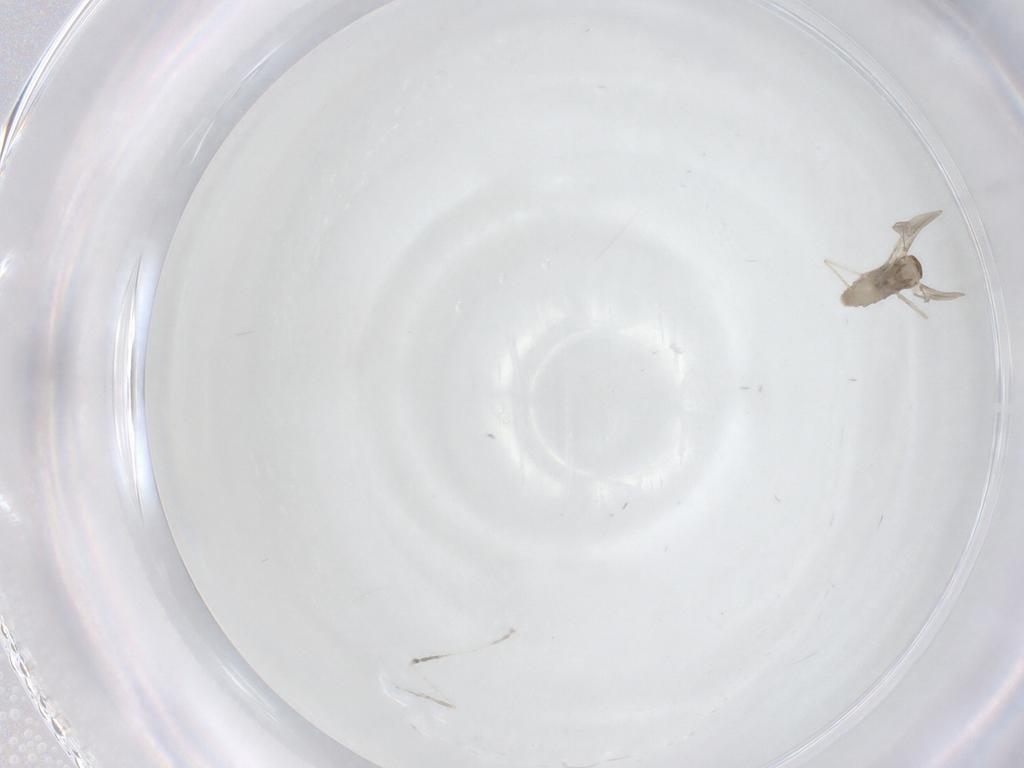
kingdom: Animalia
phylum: Arthropoda
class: Insecta
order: Diptera
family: Cecidomyiidae
